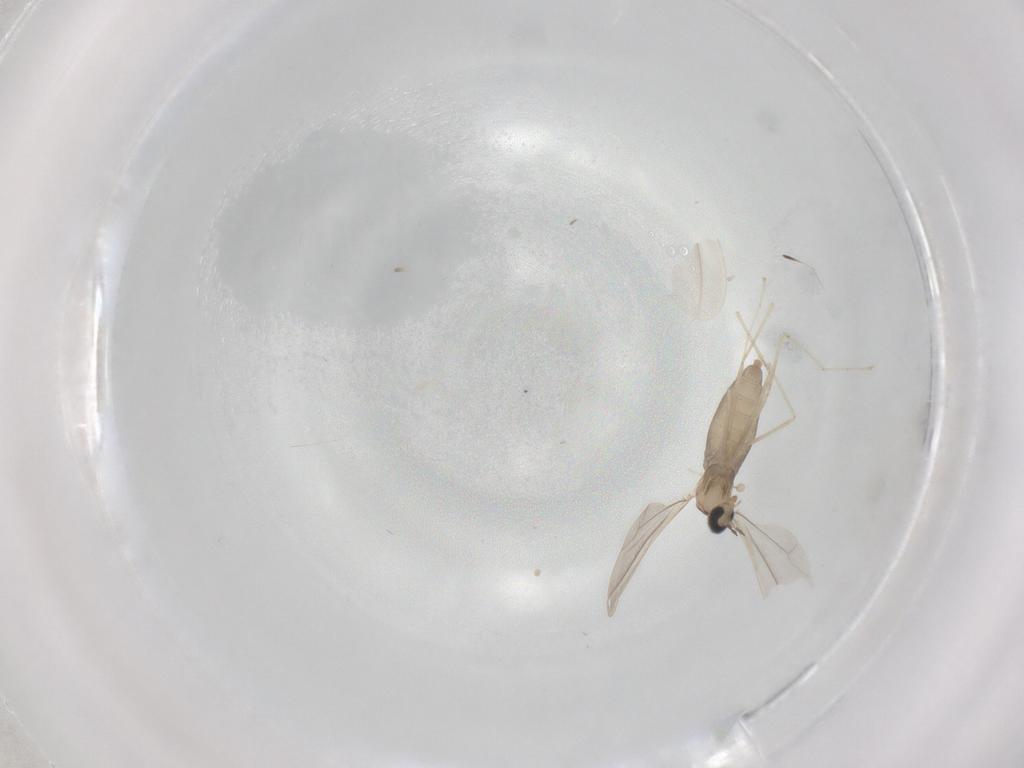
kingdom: Animalia
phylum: Arthropoda
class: Insecta
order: Diptera
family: Cecidomyiidae
